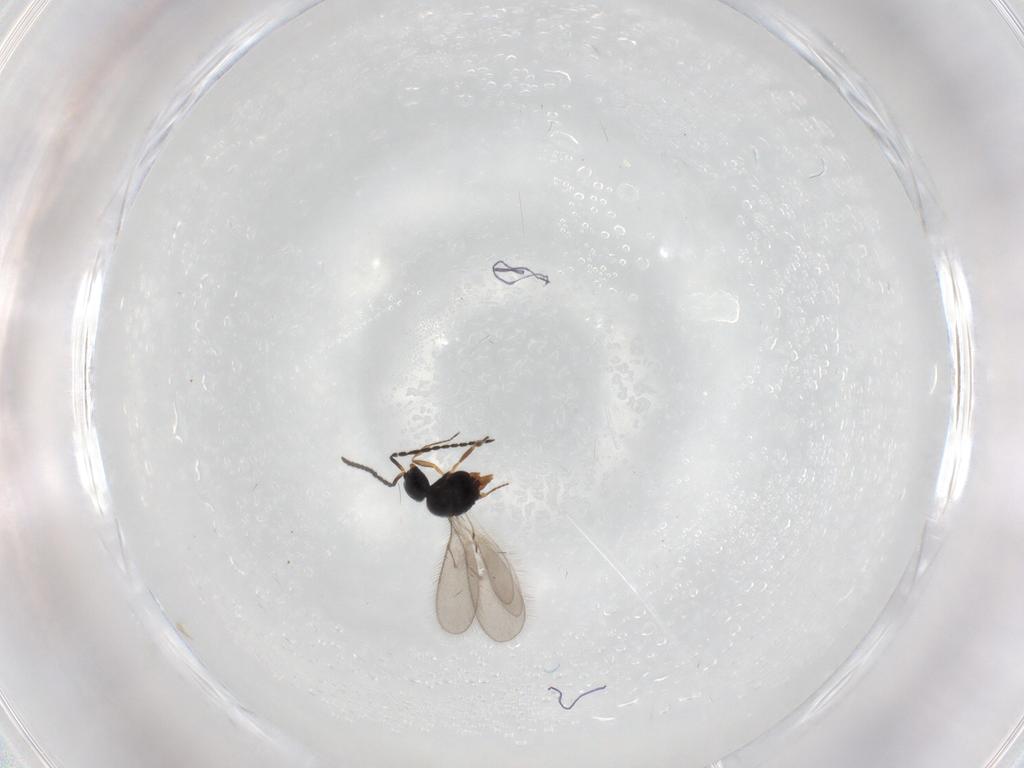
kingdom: Animalia
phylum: Arthropoda
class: Insecta
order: Hymenoptera
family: Scelionidae
